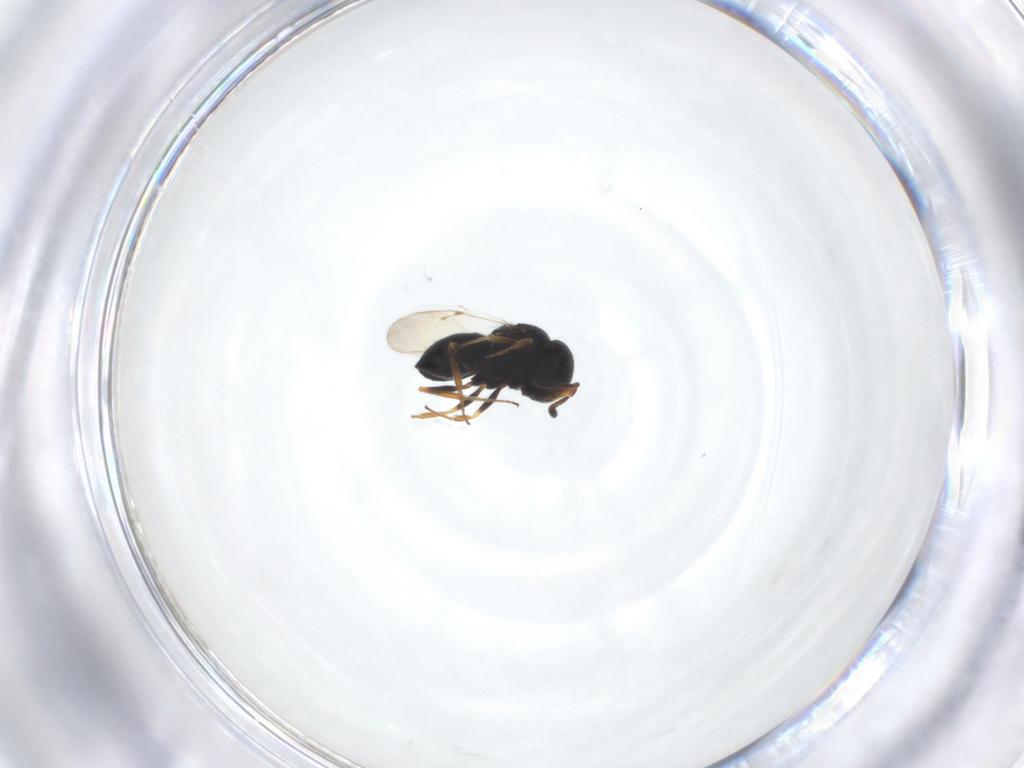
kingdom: Animalia
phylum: Arthropoda
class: Insecta
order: Hymenoptera
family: Scelionidae
